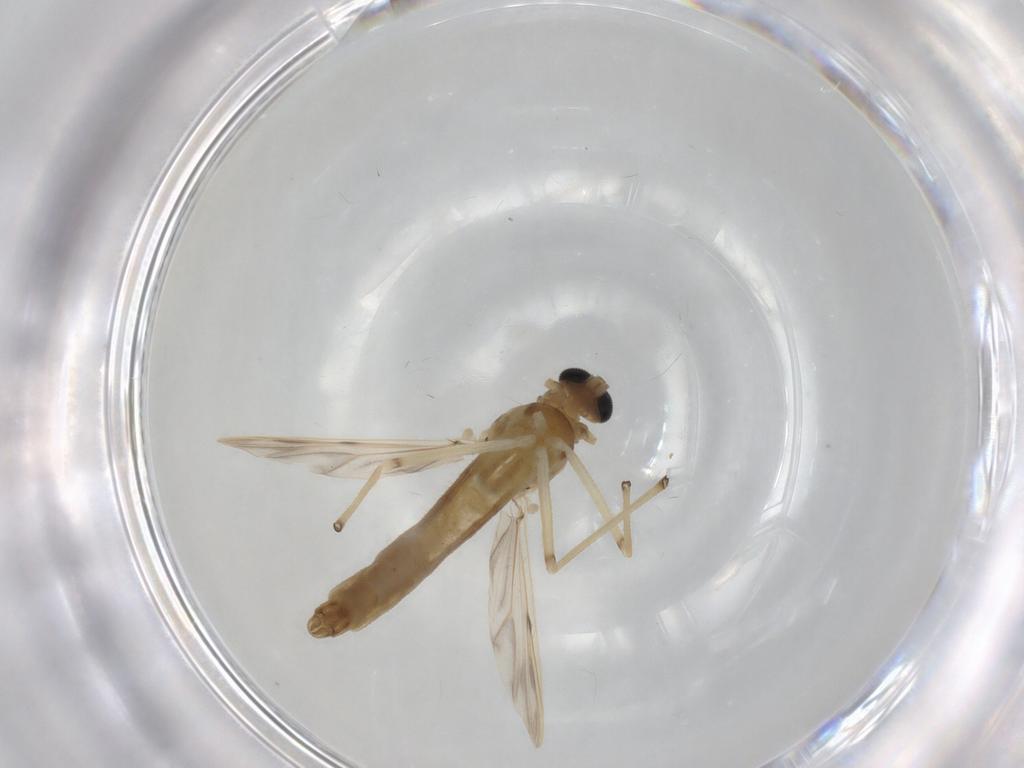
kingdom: Animalia
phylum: Arthropoda
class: Insecta
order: Diptera
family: Chironomidae
